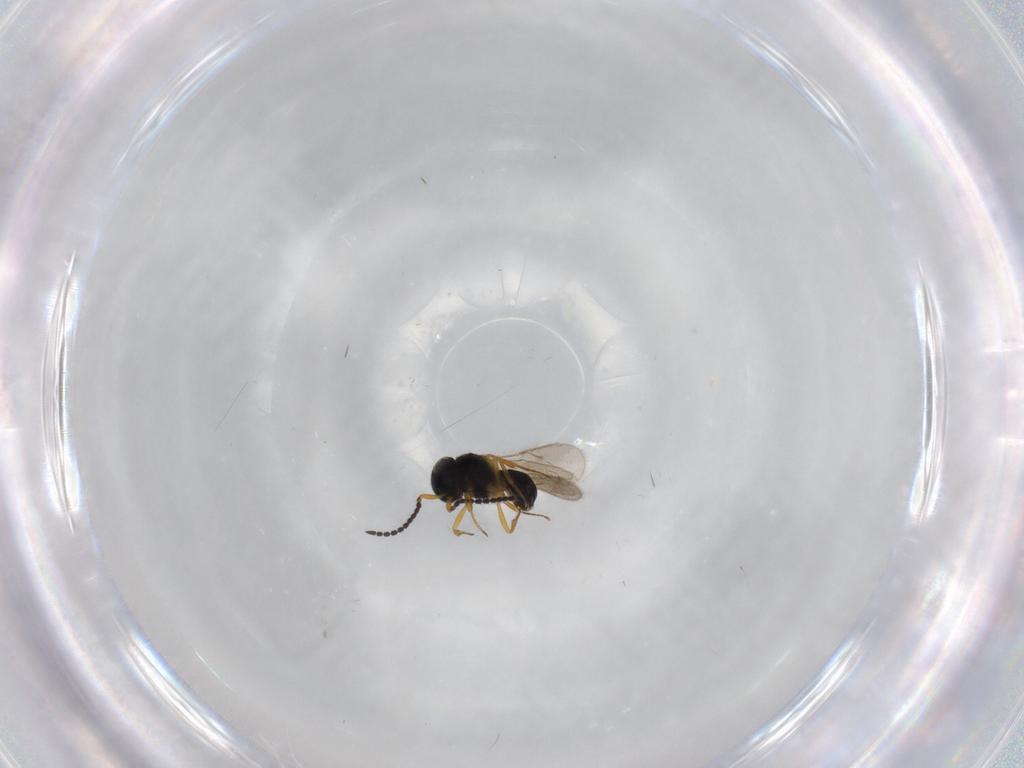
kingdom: Animalia
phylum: Arthropoda
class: Insecta
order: Hymenoptera
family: Scelionidae
